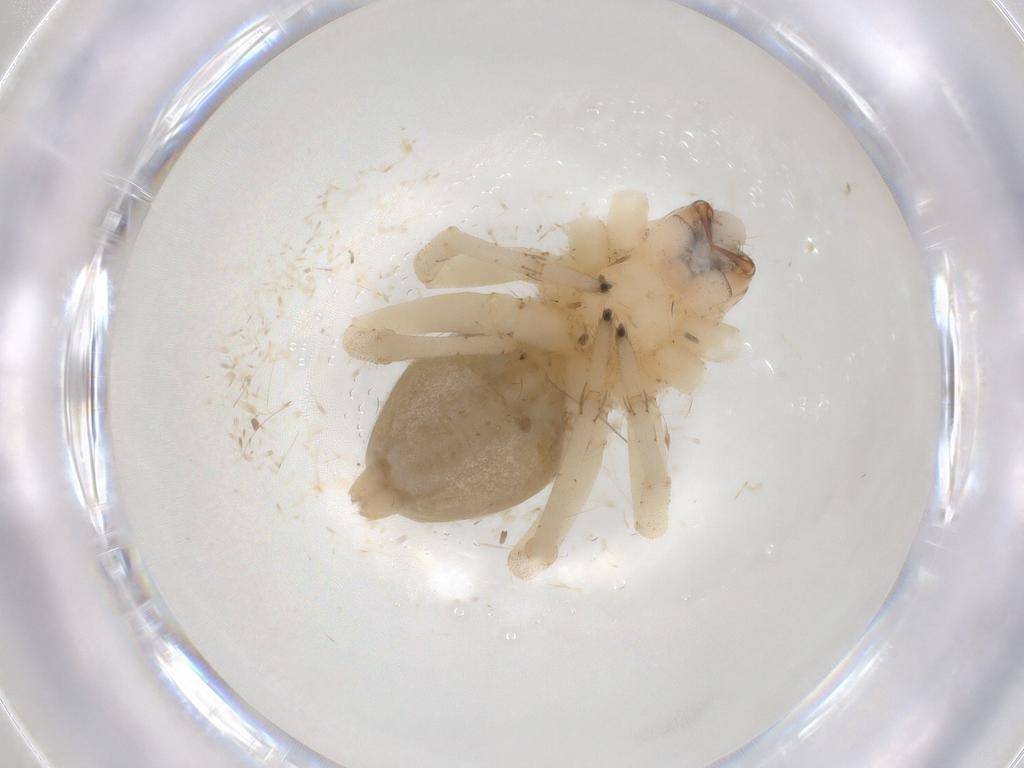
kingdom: Animalia
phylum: Arthropoda
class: Arachnida
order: Araneae
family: Cheiracanthiidae
